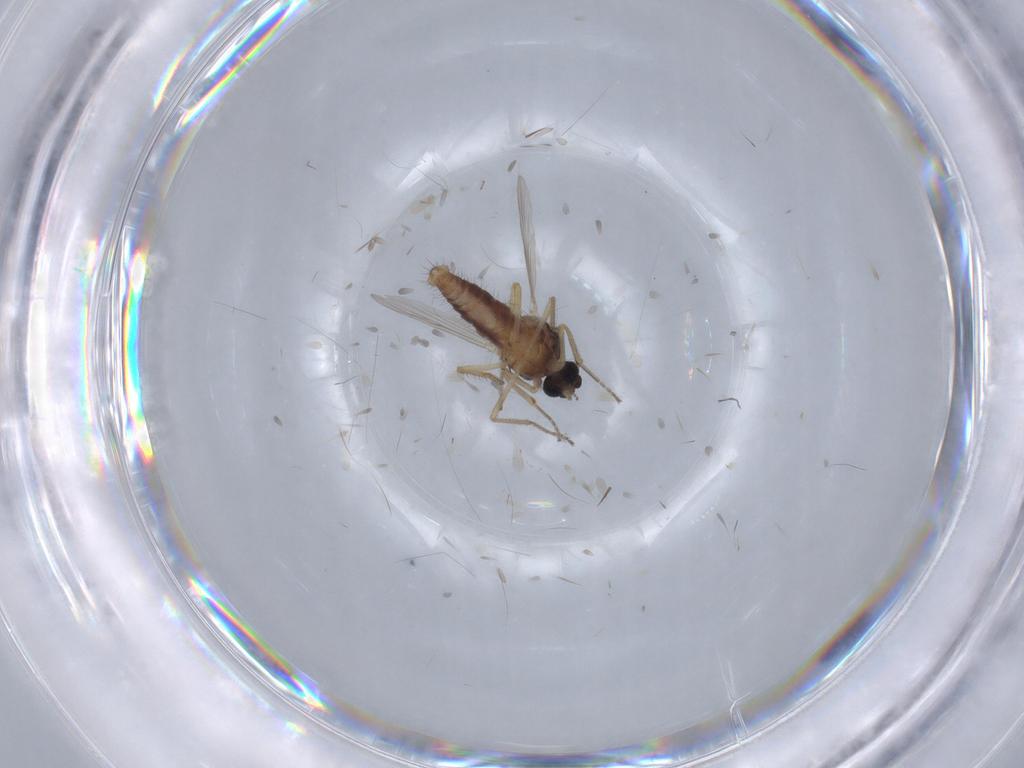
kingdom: Animalia
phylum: Arthropoda
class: Insecta
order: Diptera
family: Ceratopogonidae
